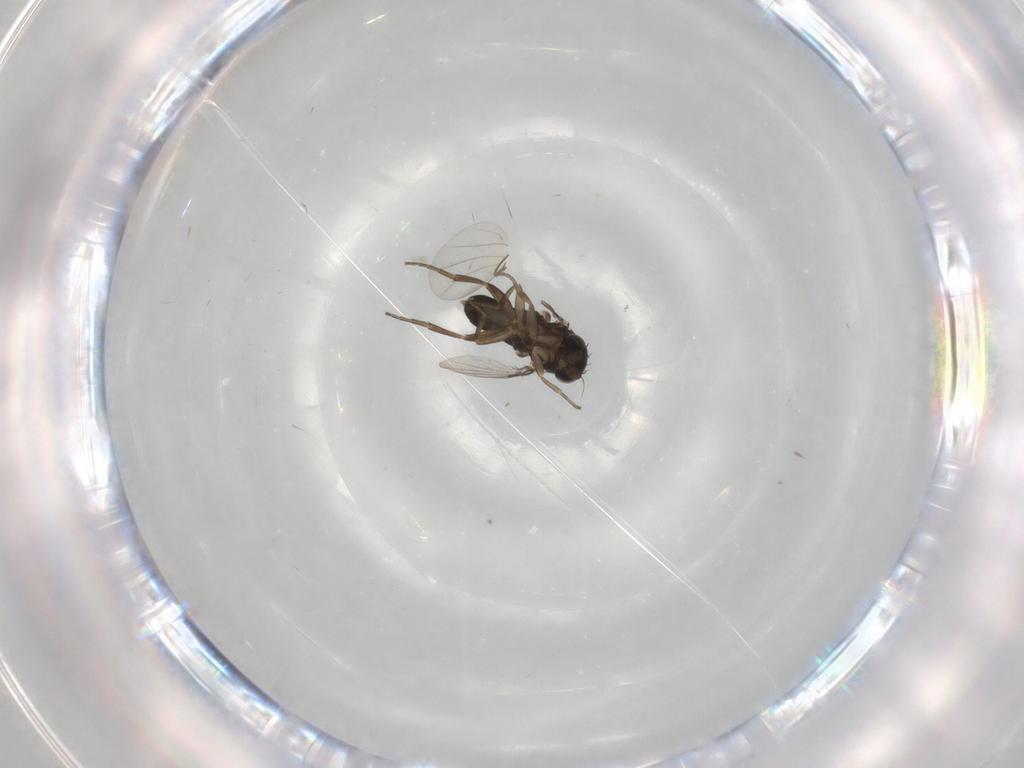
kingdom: Animalia
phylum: Arthropoda
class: Insecta
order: Diptera
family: Phoridae
